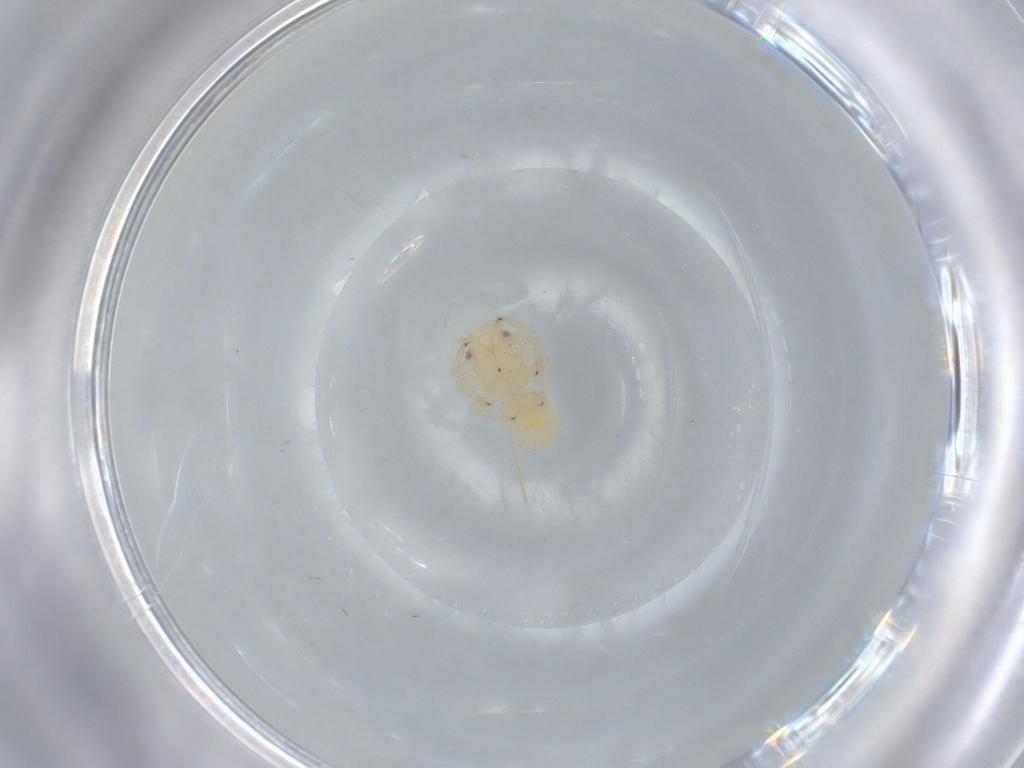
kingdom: Animalia
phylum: Arthropoda
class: Insecta
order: Hemiptera
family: Psyllidae
